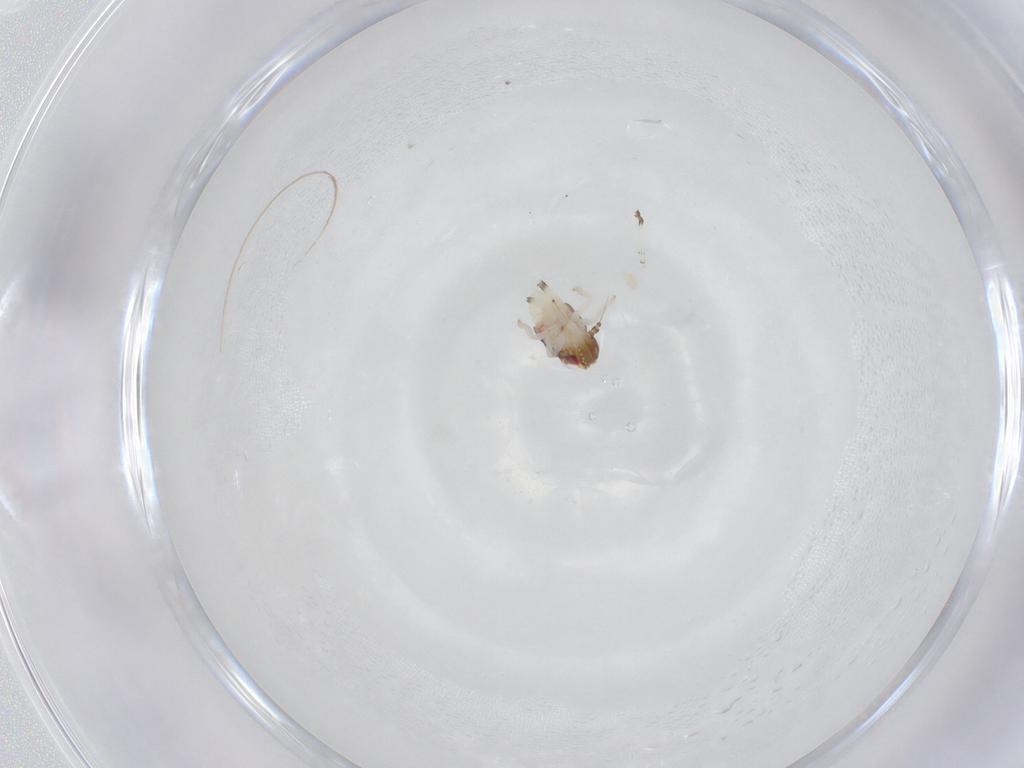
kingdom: Animalia
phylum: Arthropoda
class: Insecta
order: Hemiptera
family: Nogodinidae
